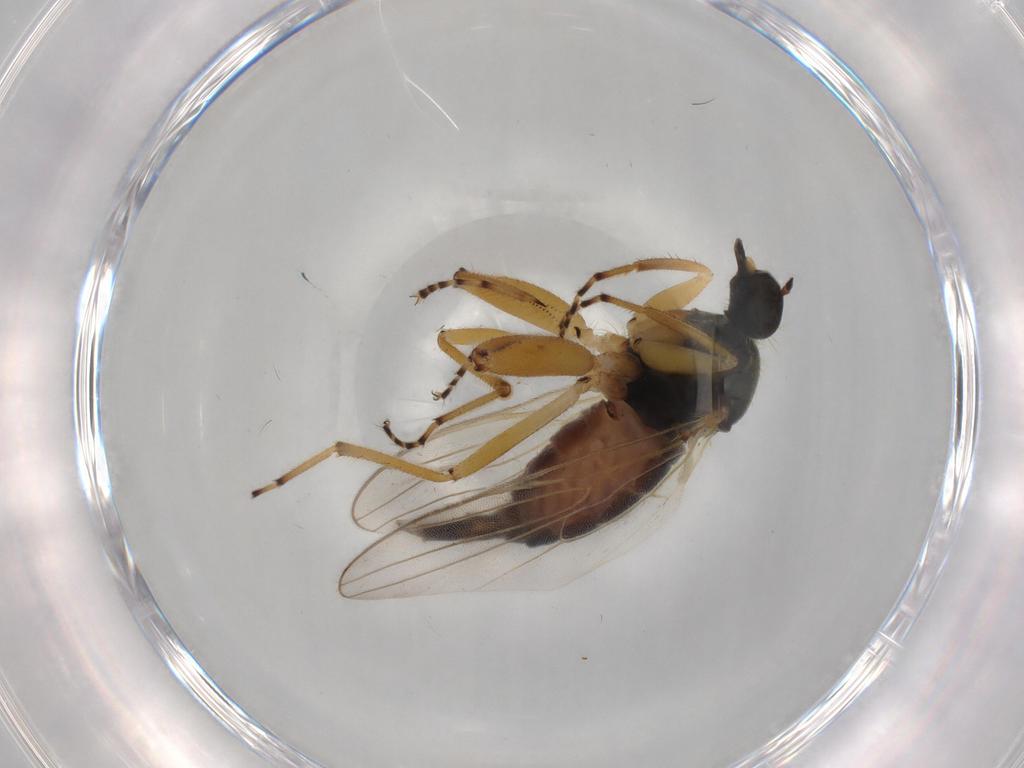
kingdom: Animalia
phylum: Arthropoda
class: Insecta
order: Diptera
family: Hybotidae
